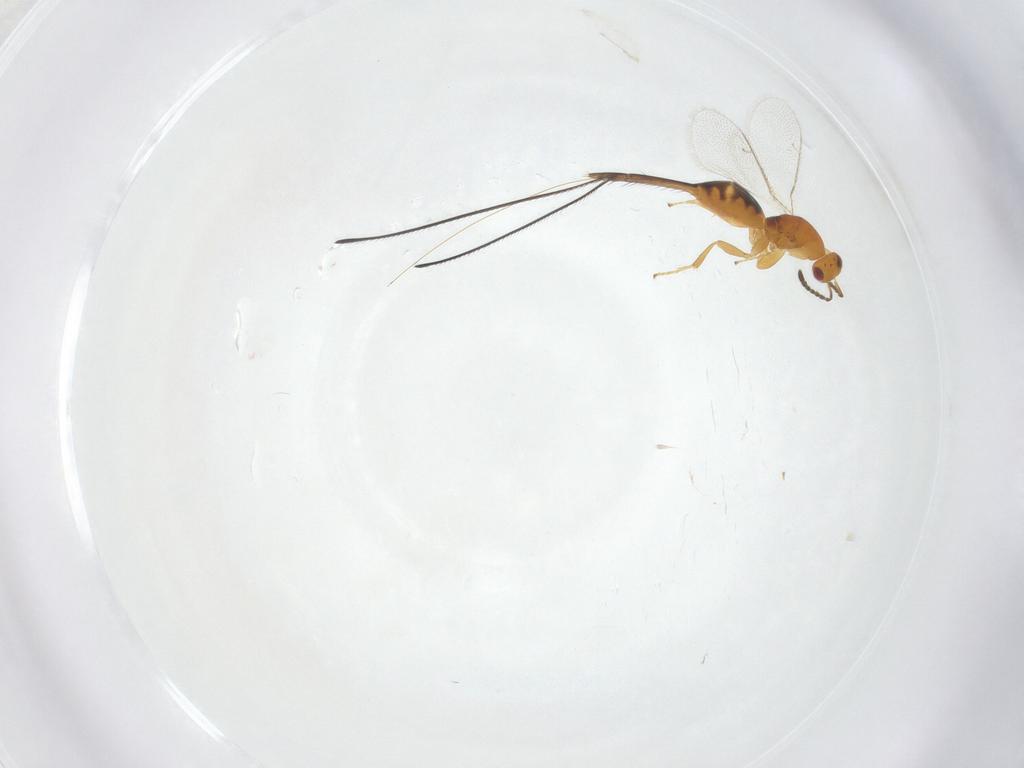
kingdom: Animalia
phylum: Arthropoda
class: Insecta
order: Hymenoptera
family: Pteromalidae
